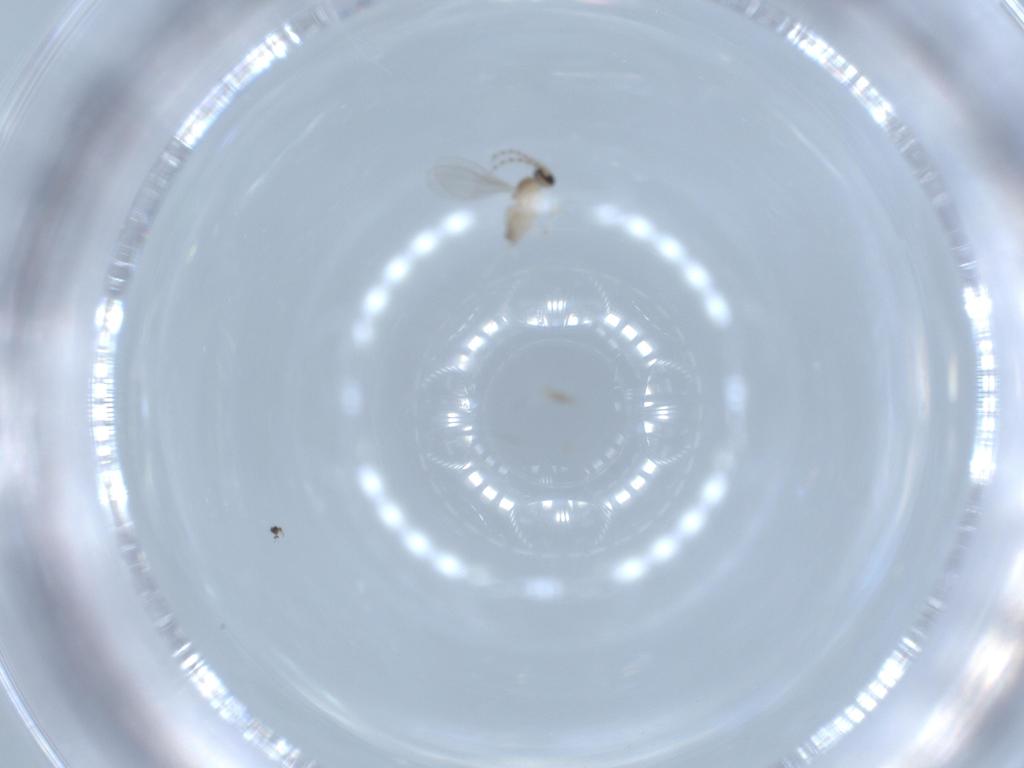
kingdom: Animalia
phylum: Arthropoda
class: Insecta
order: Diptera
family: Cecidomyiidae
